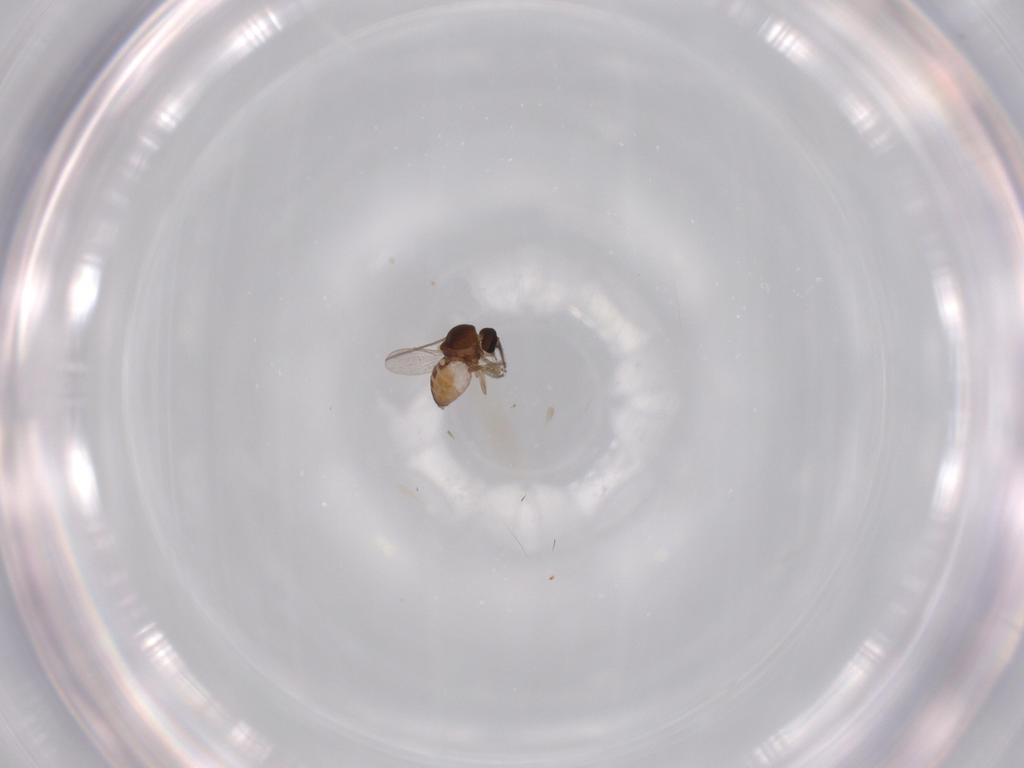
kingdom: Animalia
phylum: Arthropoda
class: Insecta
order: Diptera
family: Ceratopogonidae
